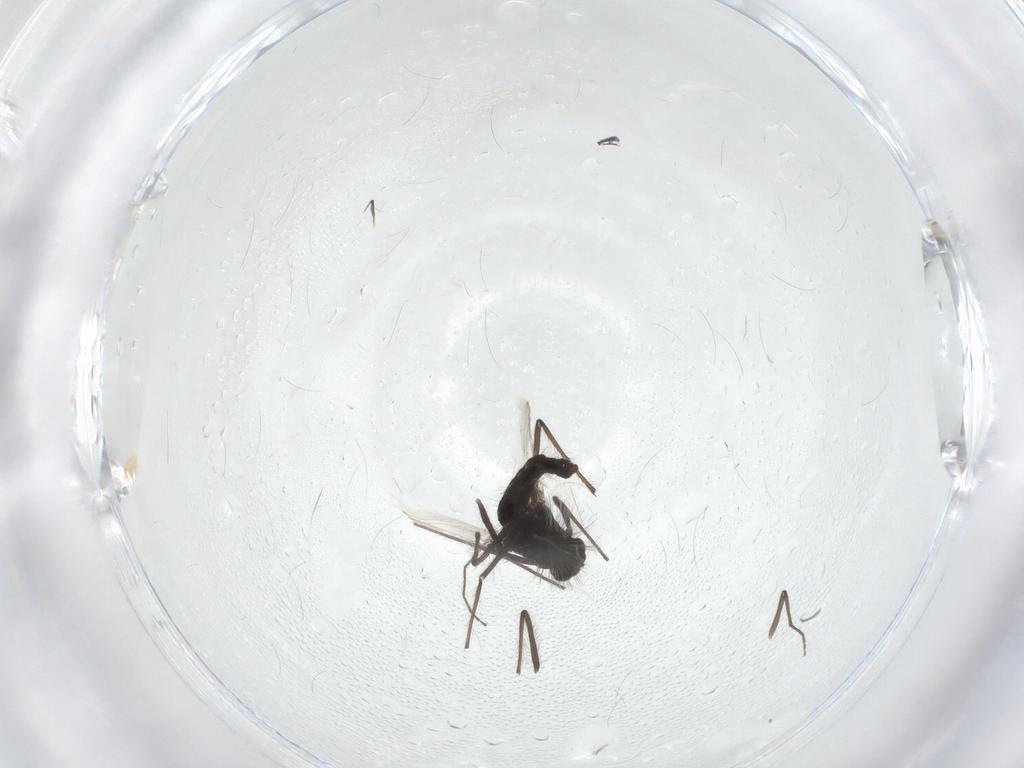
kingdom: Animalia
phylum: Arthropoda
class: Insecta
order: Diptera
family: Chironomidae
